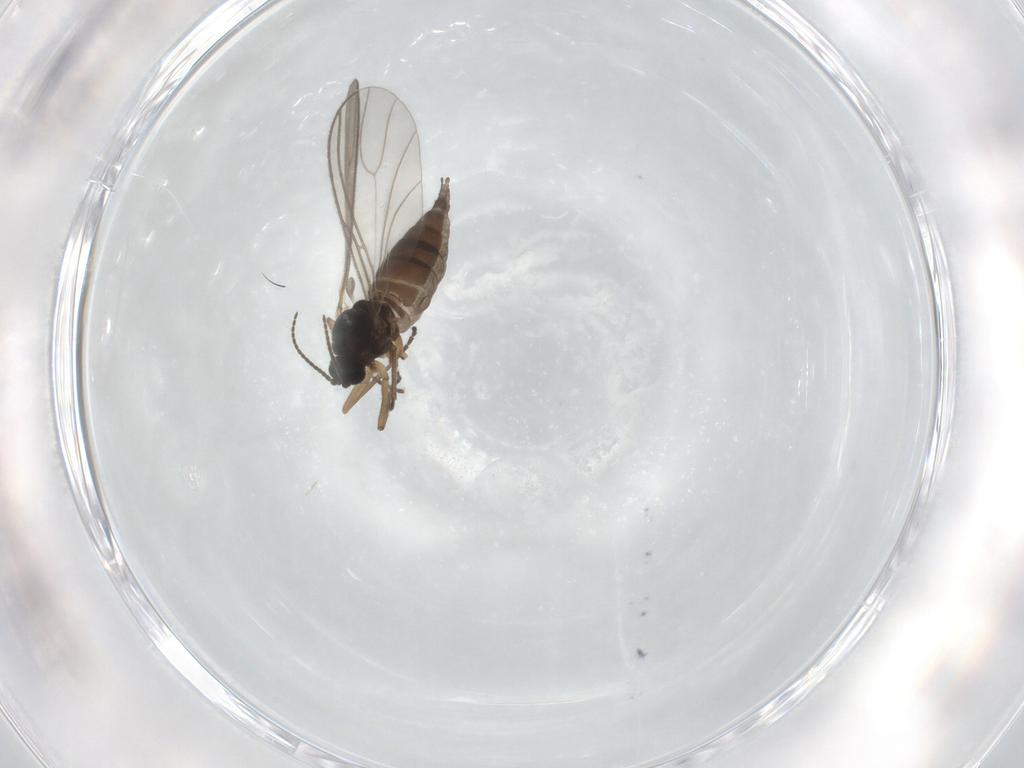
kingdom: Animalia
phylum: Arthropoda
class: Insecta
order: Diptera
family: Sciaridae
